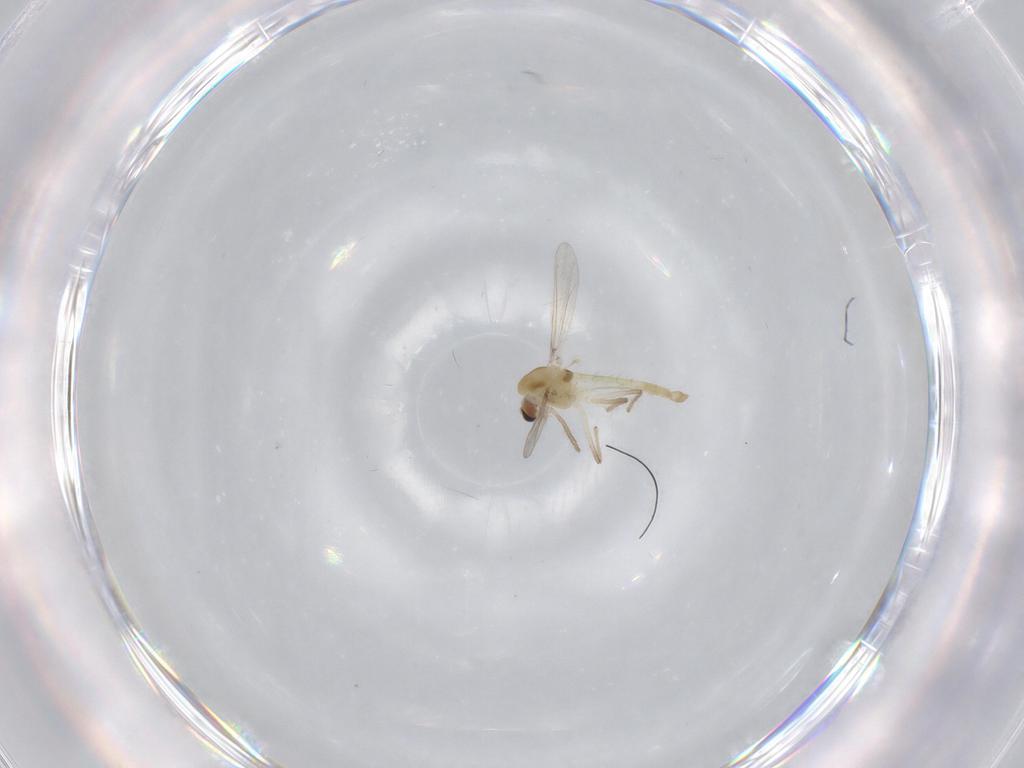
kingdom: Animalia
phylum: Arthropoda
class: Insecta
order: Diptera
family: Chironomidae
